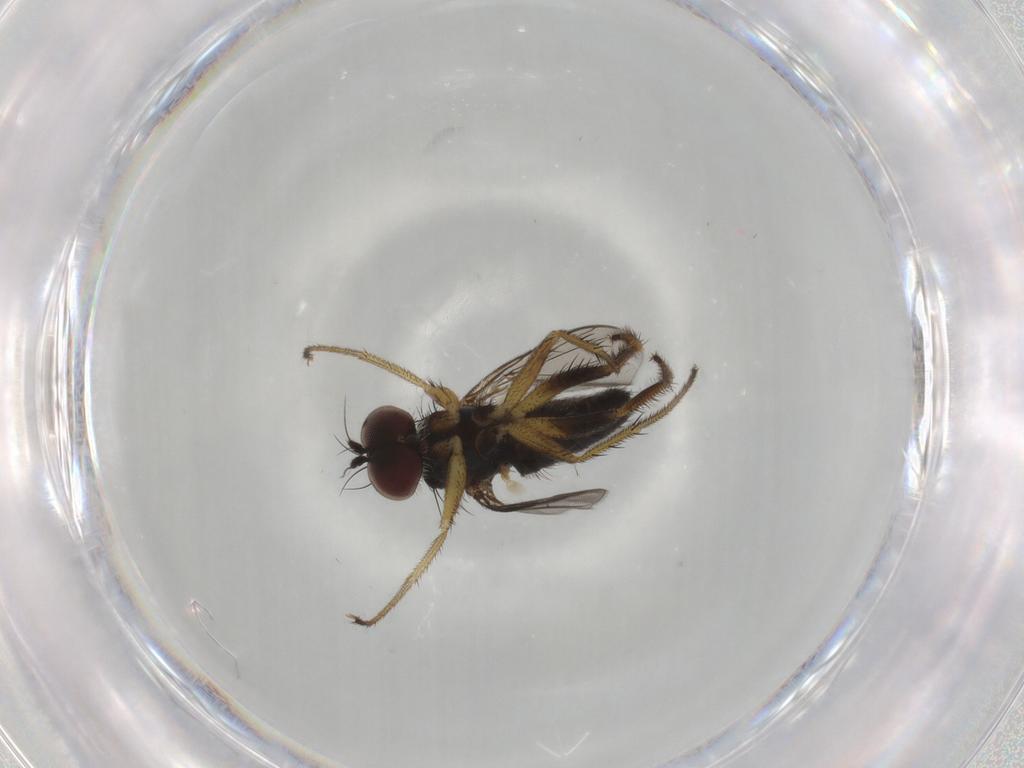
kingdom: Animalia
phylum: Arthropoda
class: Insecta
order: Diptera
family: Dolichopodidae
